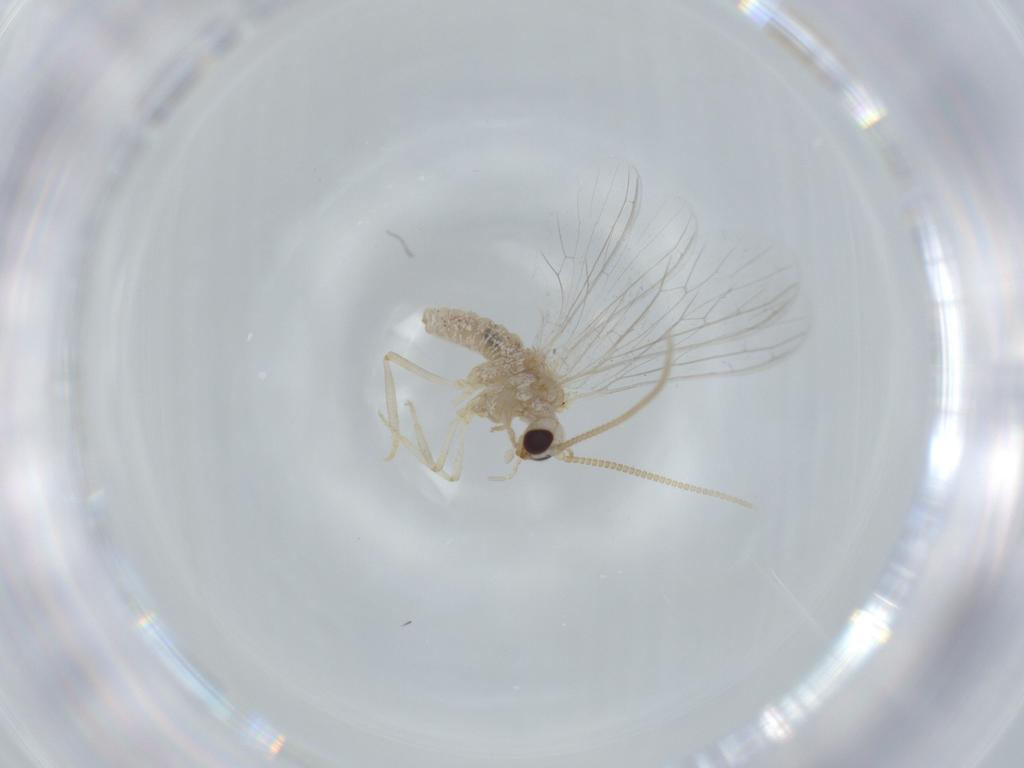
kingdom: Animalia
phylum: Arthropoda
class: Insecta
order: Neuroptera
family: Coniopterygidae
